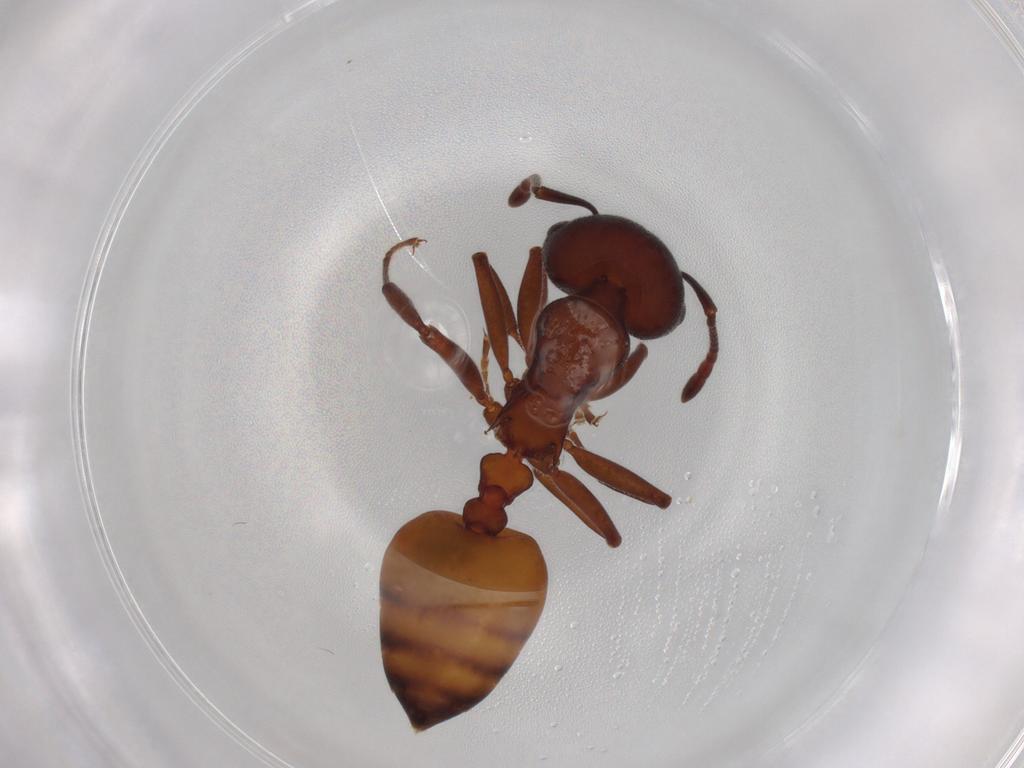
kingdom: Animalia
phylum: Arthropoda
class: Insecta
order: Hymenoptera
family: Formicidae
